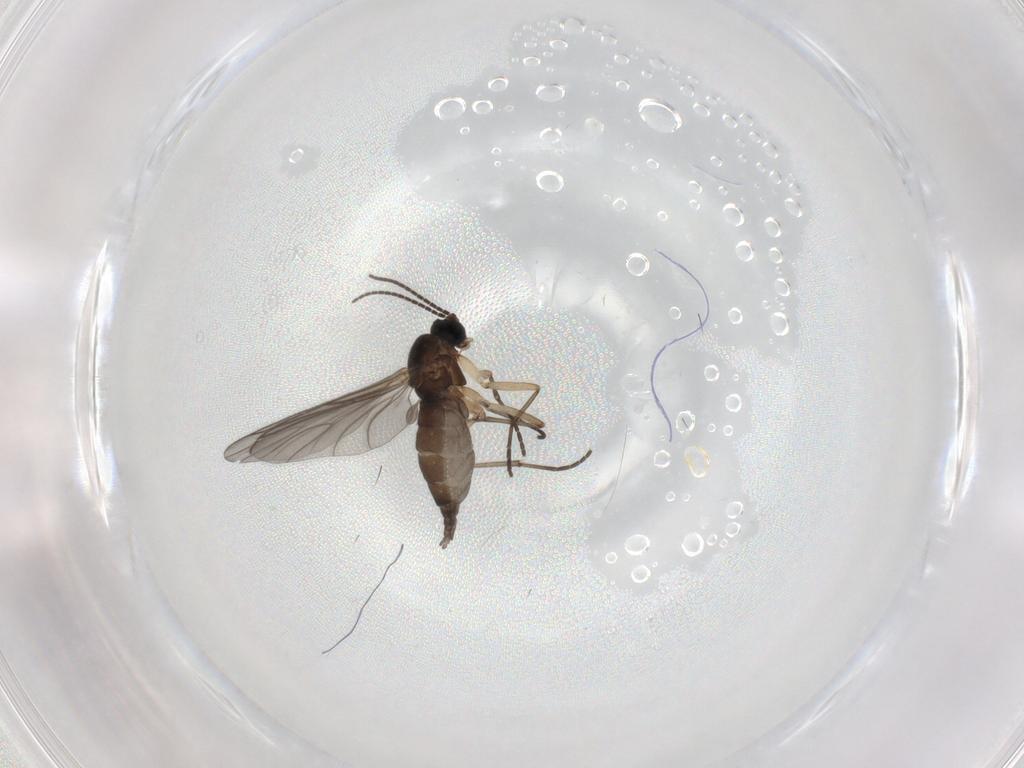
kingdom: Animalia
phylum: Arthropoda
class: Insecta
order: Diptera
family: Sciaridae
